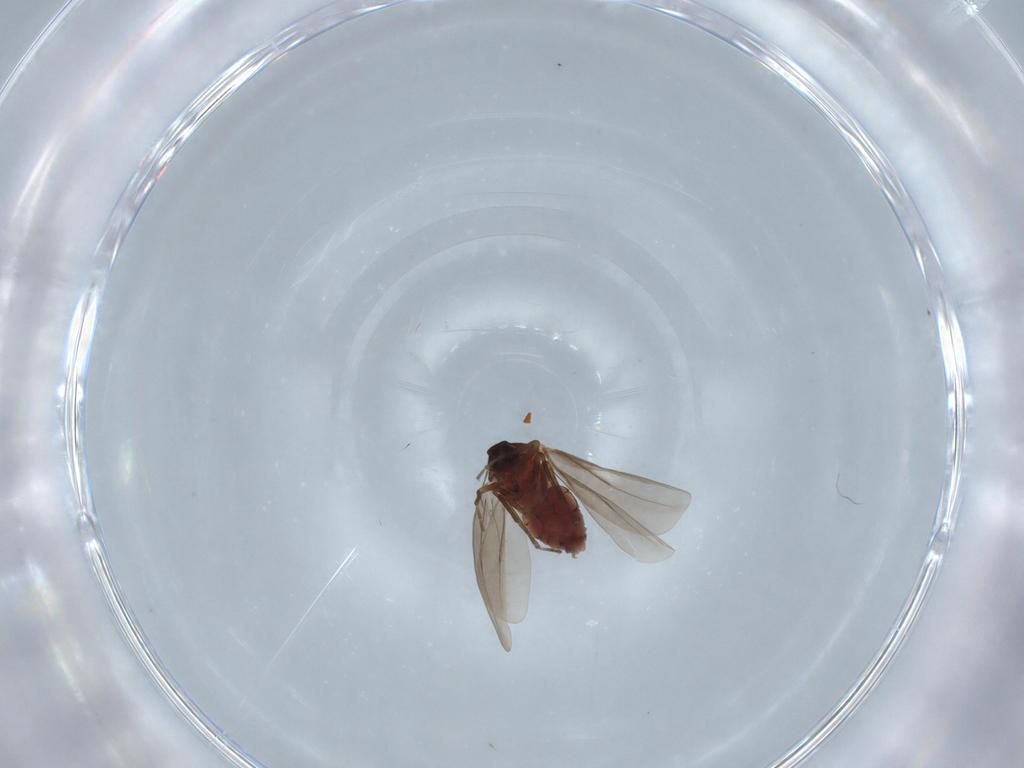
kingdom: Animalia
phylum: Arthropoda
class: Insecta
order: Hemiptera
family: Aleyrodidae
